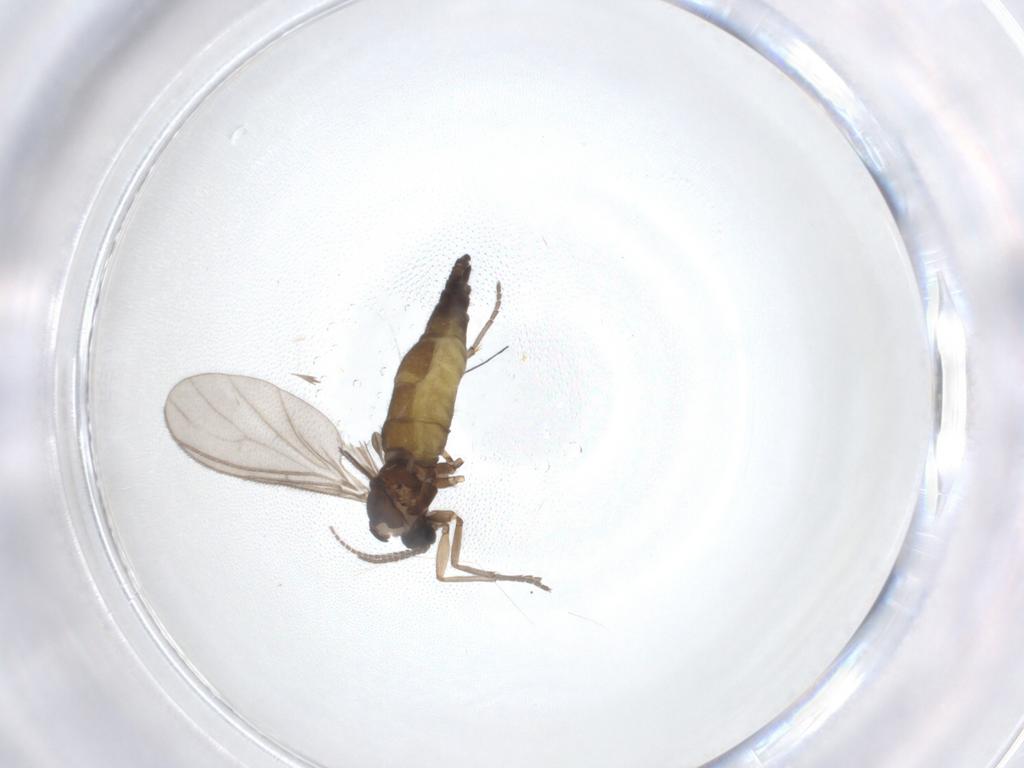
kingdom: Animalia
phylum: Arthropoda
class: Insecta
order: Diptera
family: Sciaridae
